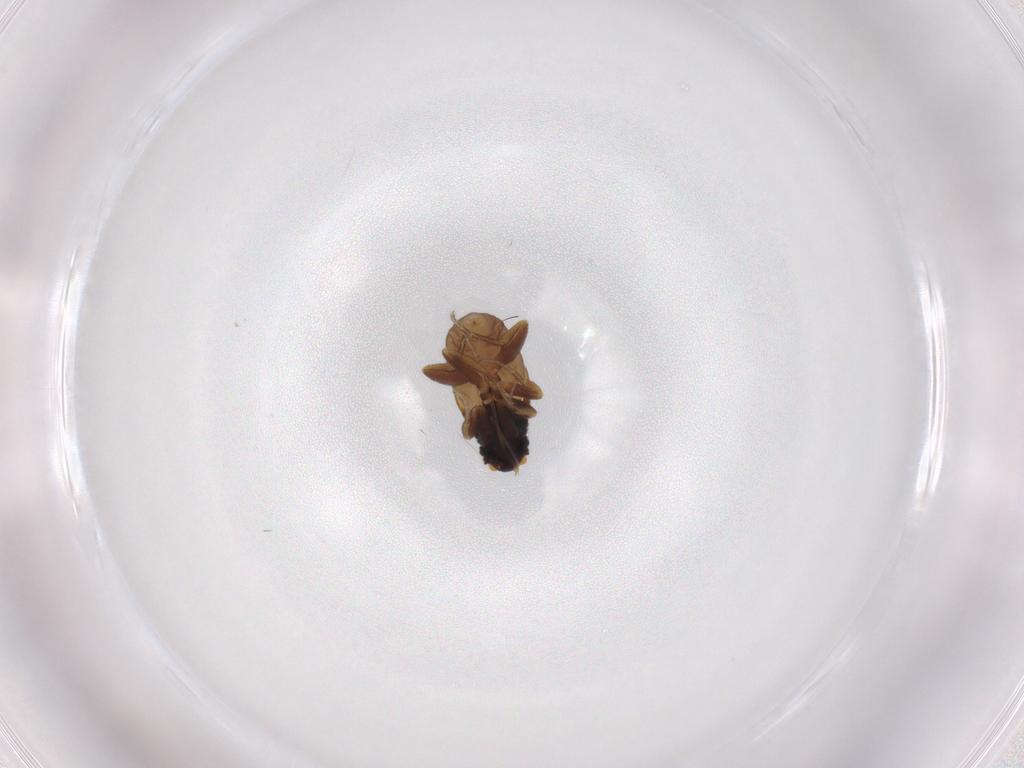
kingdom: Animalia
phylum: Arthropoda
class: Insecta
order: Diptera
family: Phoridae
